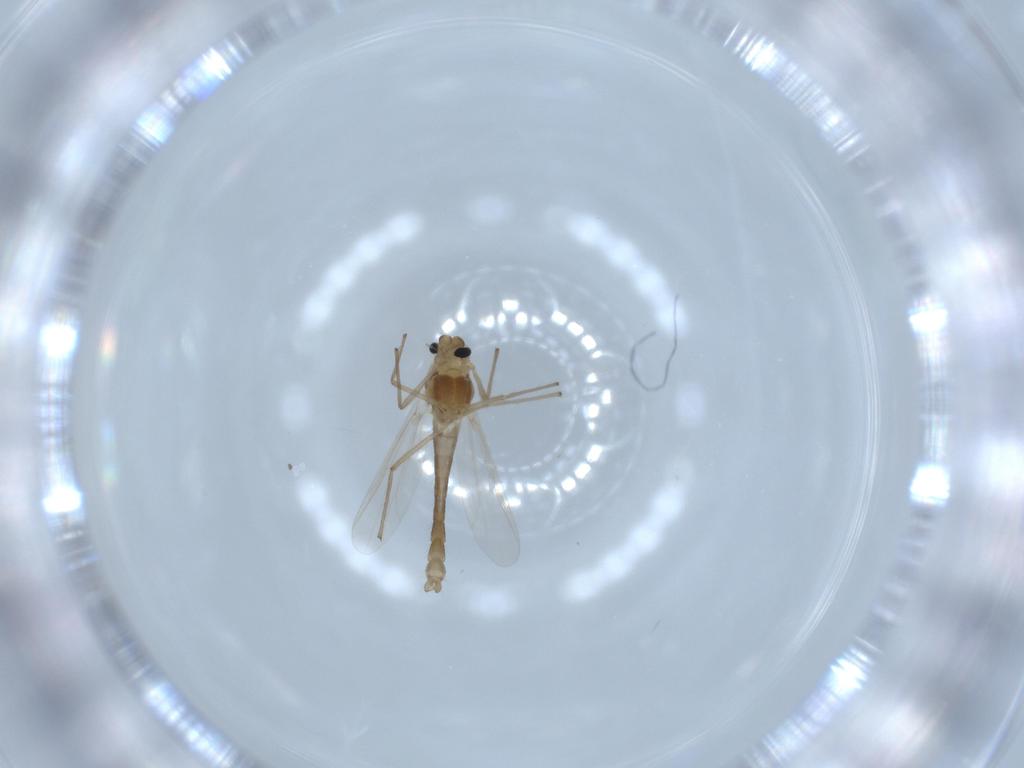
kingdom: Animalia
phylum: Arthropoda
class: Insecta
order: Diptera
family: Chironomidae
